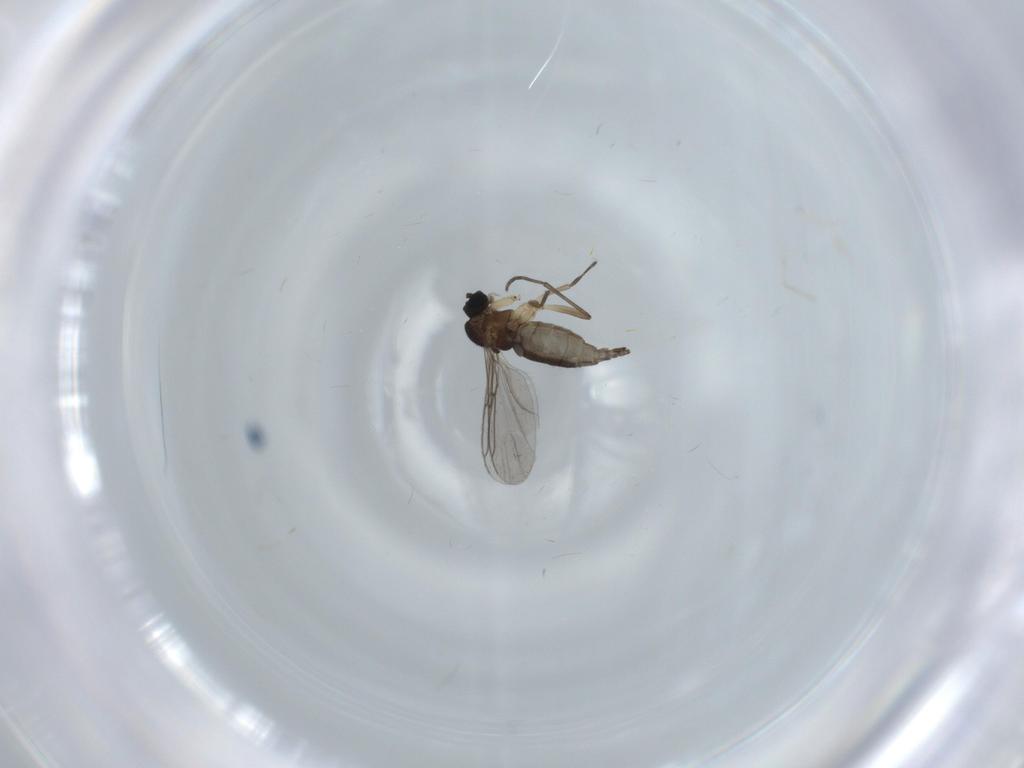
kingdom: Animalia
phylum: Arthropoda
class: Insecta
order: Diptera
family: Sciaridae
